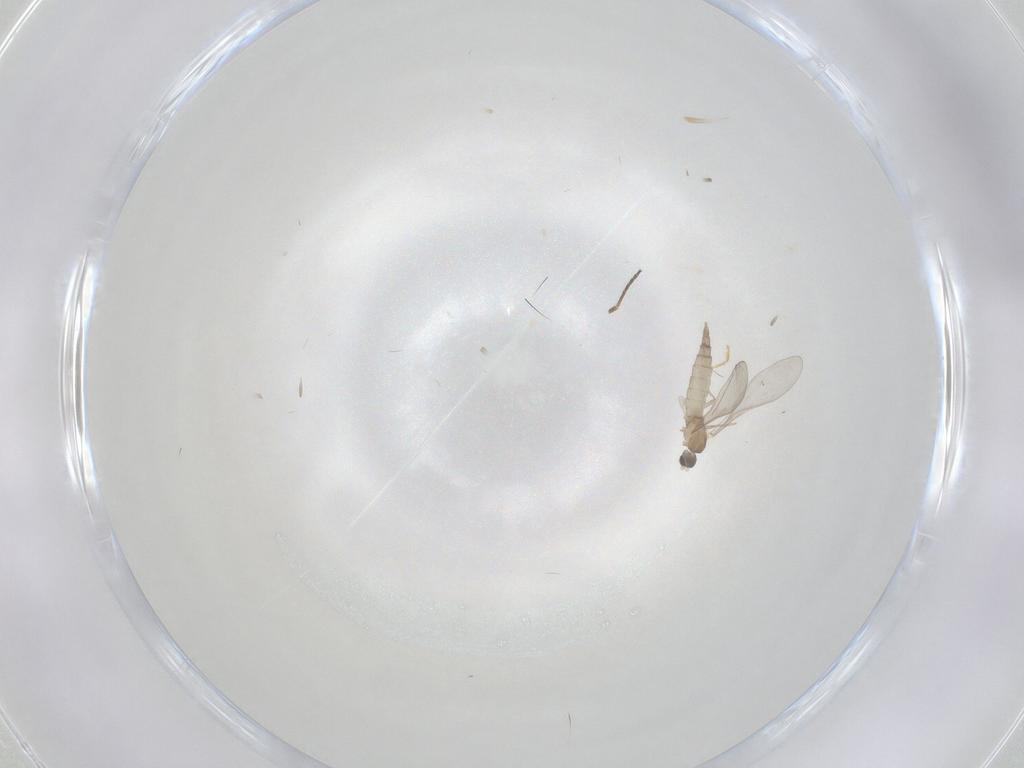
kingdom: Animalia
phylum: Arthropoda
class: Insecta
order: Diptera
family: Cecidomyiidae
